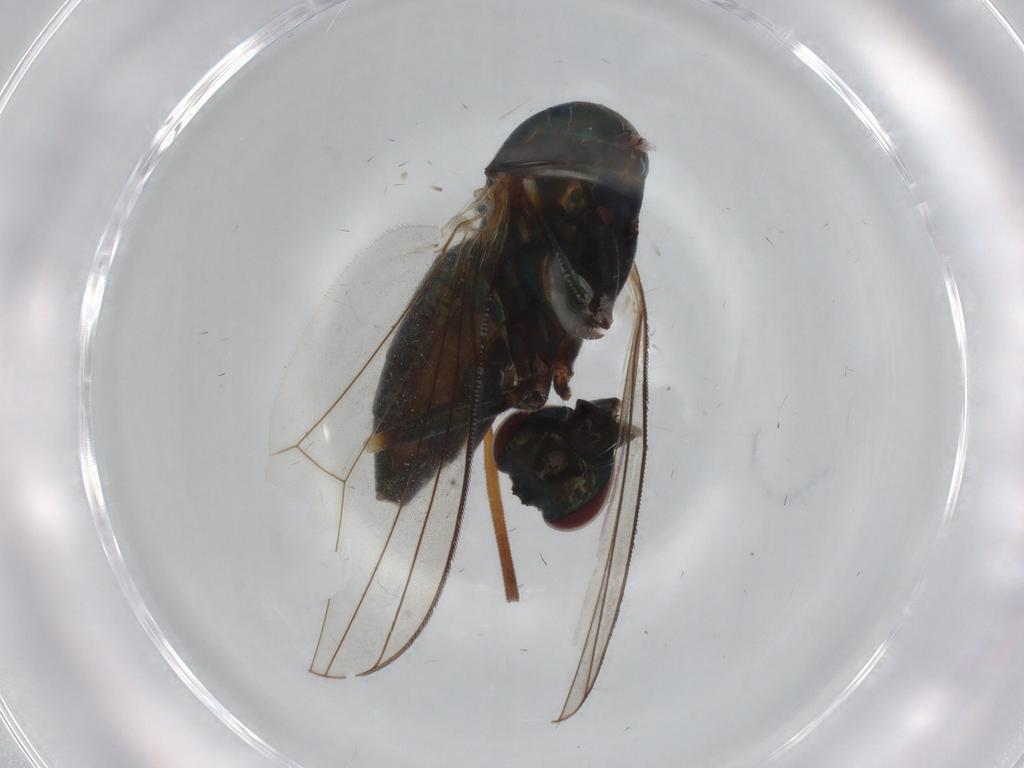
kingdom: Animalia
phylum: Arthropoda
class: Insecta
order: Diptera
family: Dolichopodidae
